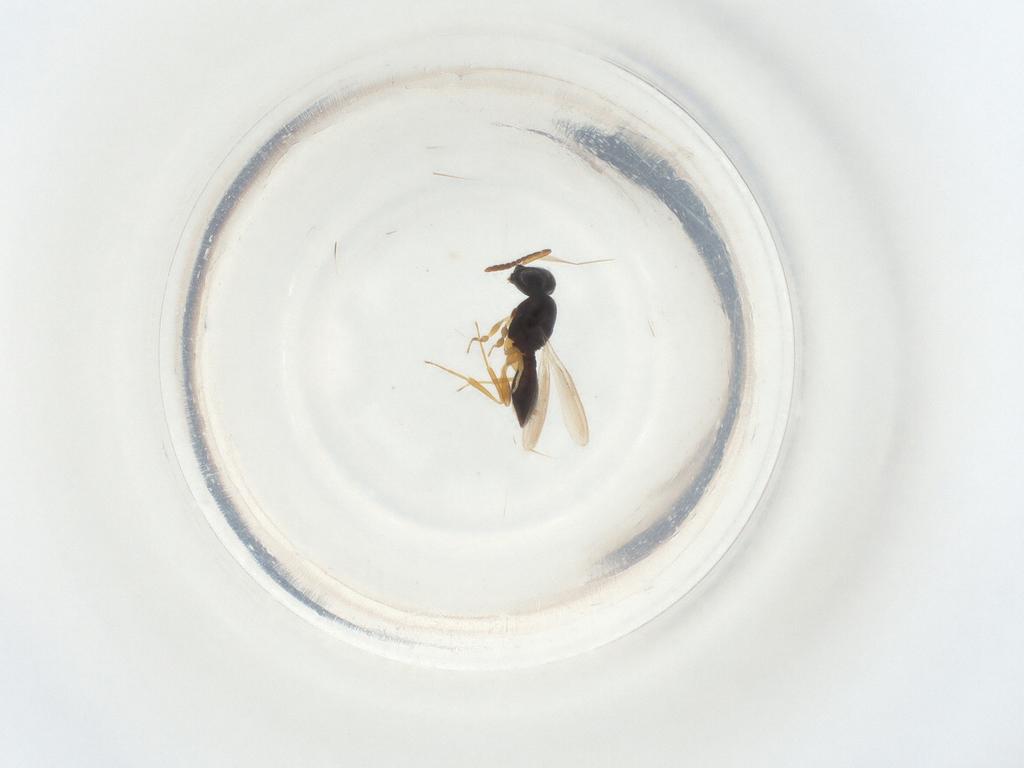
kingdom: Animalia
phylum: Arthropoda
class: Insecta
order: Hymenoptera
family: Scelionidae
